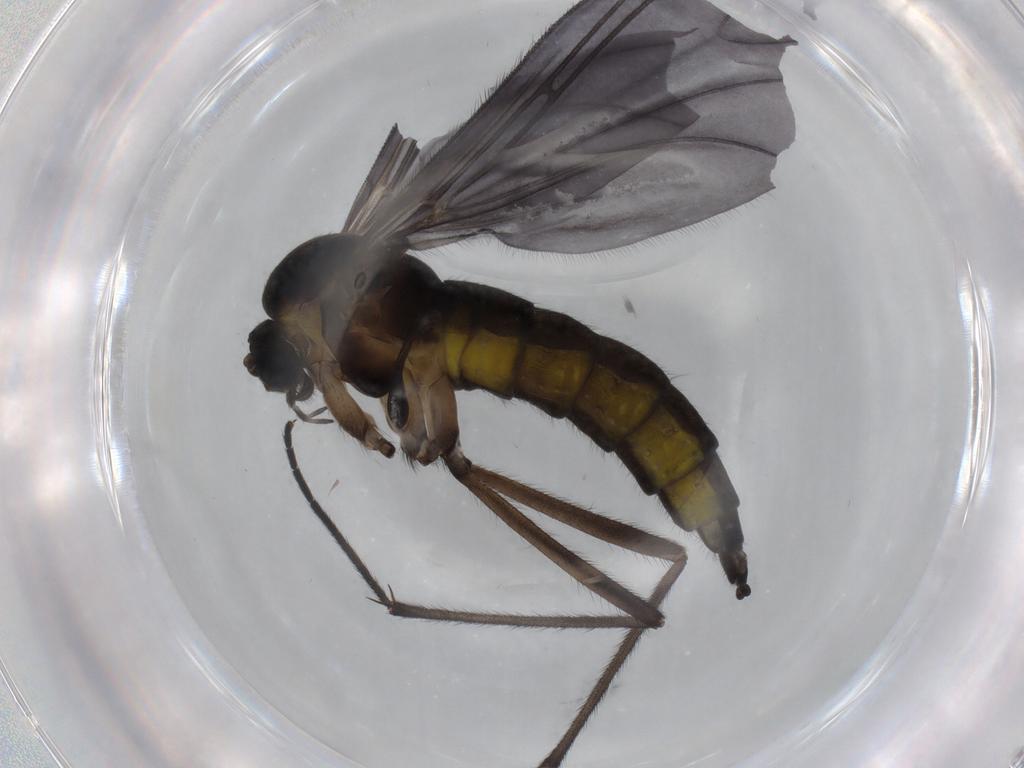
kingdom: Animalia
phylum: Arthropoda
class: Insecta
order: Diptera
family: Sciaridae
